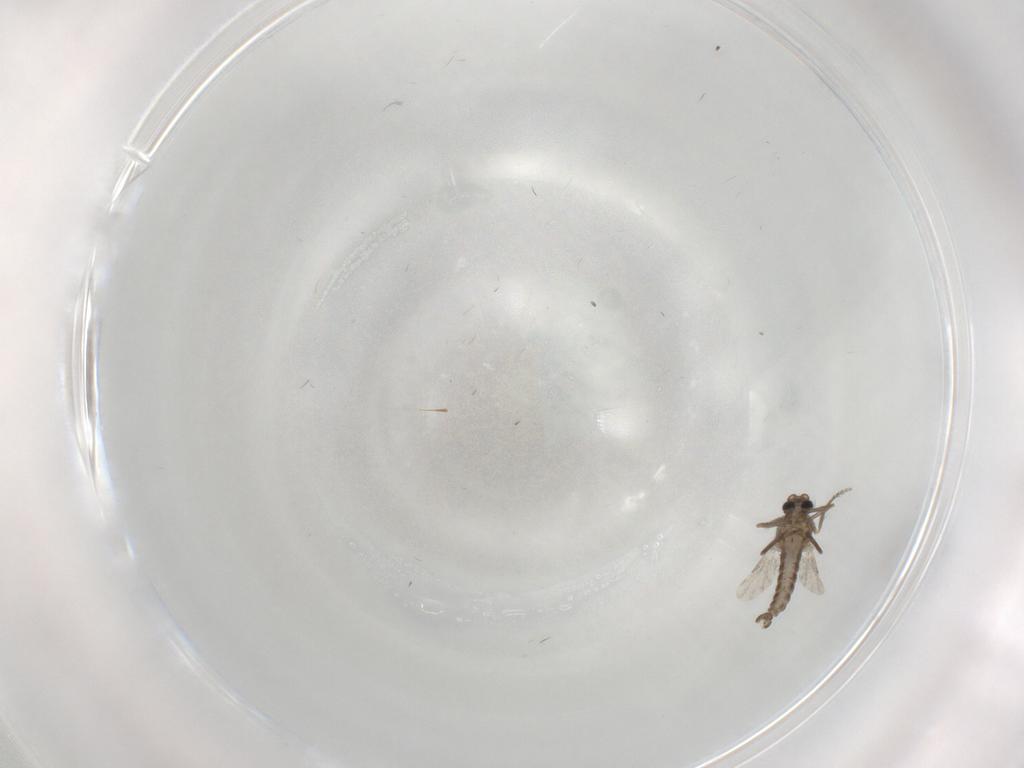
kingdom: Animalia
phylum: Arthropoda
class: Insecta
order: Diptera
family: Ceratopogonidae
